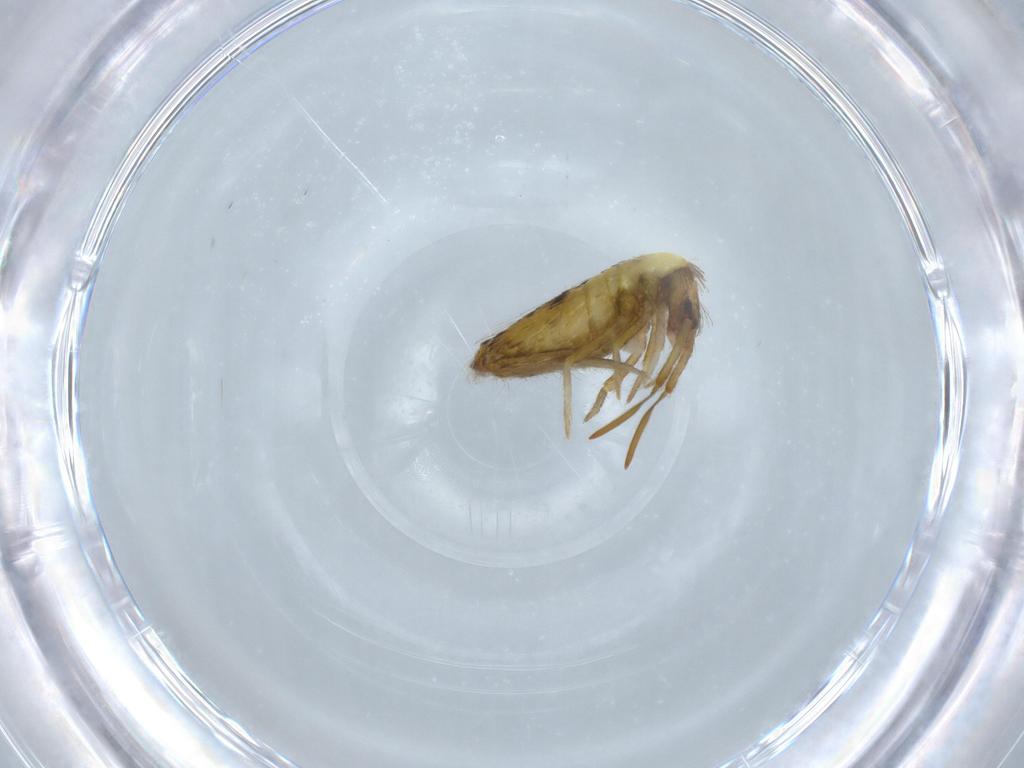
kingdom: Animalia
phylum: Arthropoda
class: Collembola
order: Entomobryomorpha
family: Entomobryidae
